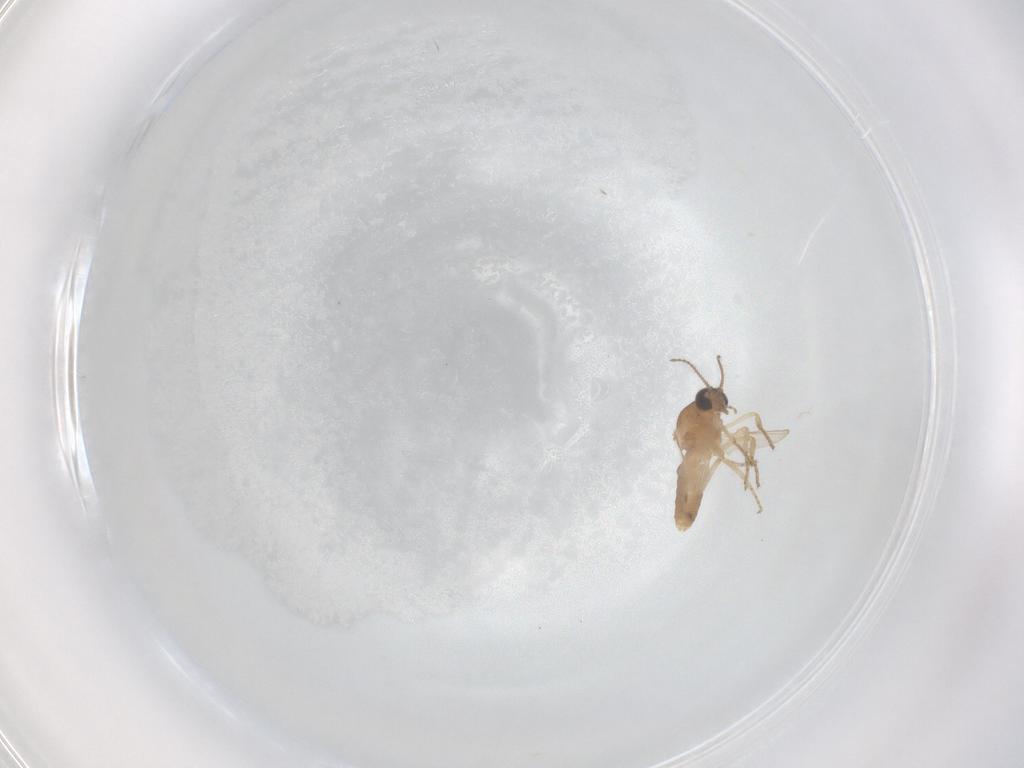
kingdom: Animalia
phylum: Arthropoda
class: Insecta
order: Diptera
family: Ceratopogonidae
